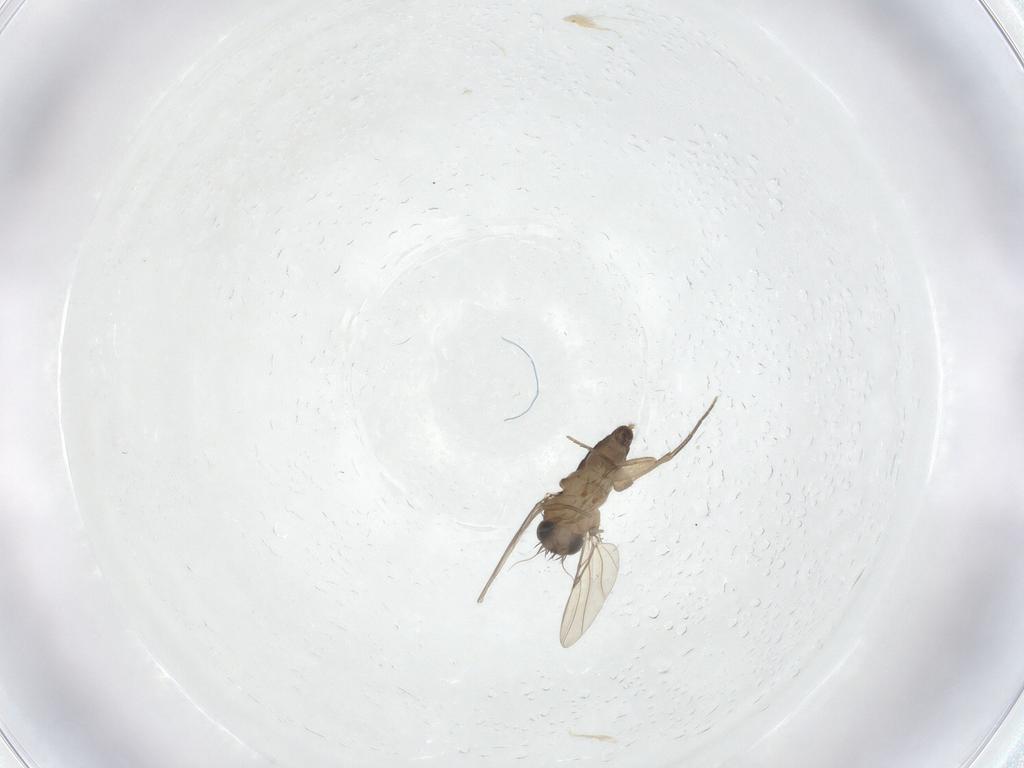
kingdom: Animalia
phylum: Arthropoda
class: Insecta
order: Diptera
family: Phoridae
